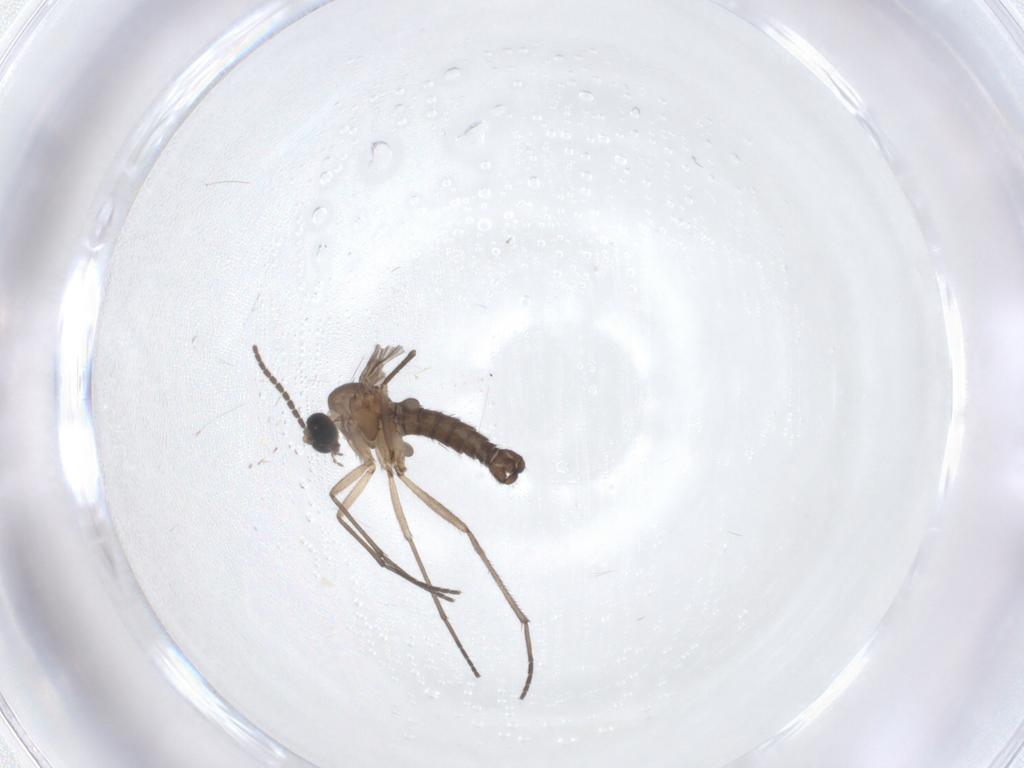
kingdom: Animalia
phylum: Arthropoda
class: Insecta
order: Diptera
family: Sciaridae
